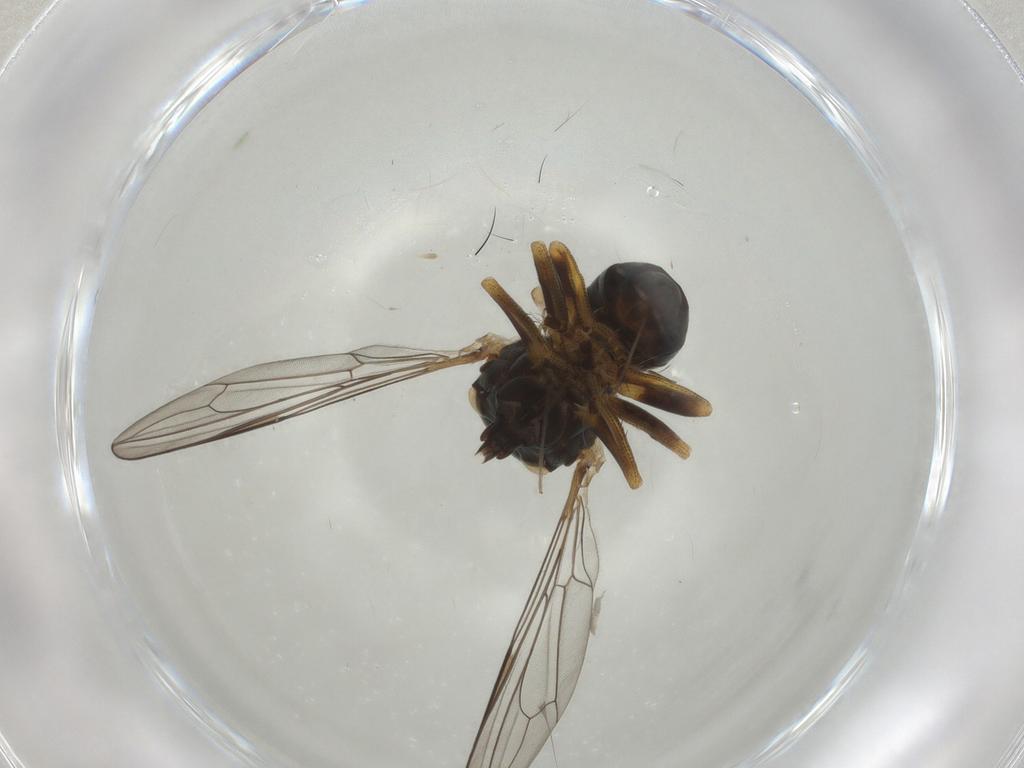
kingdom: Animalia
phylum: Arthropoda
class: Insecta
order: Diptera
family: Pipunculidae
